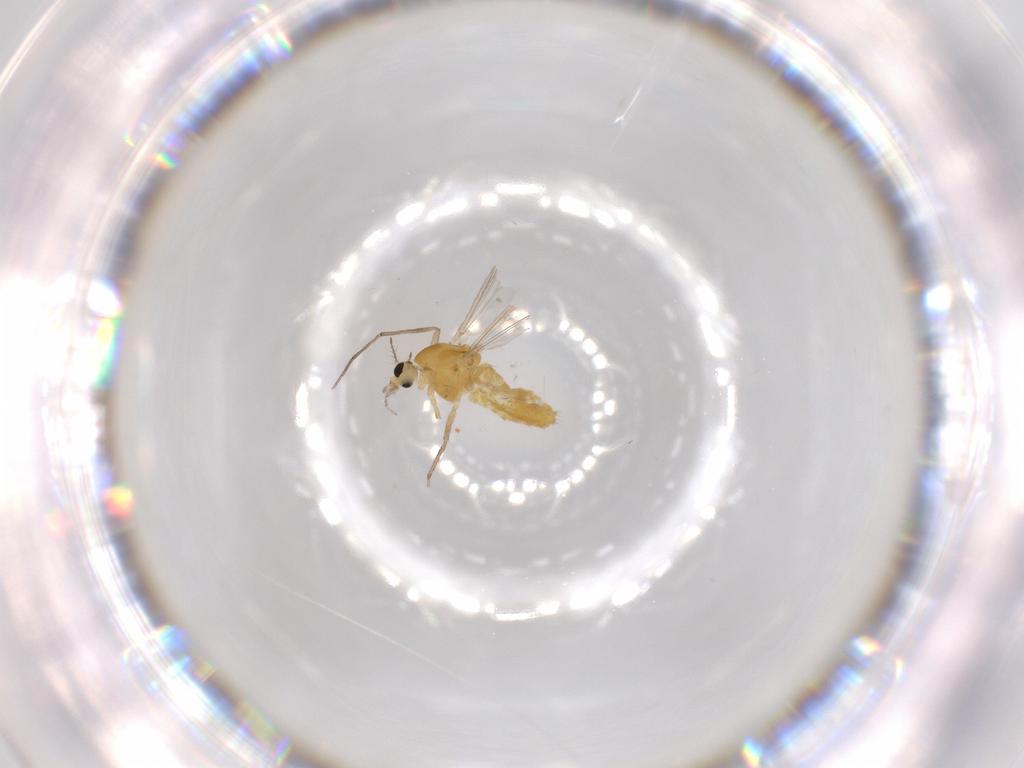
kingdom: Animalia
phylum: Arthropoda
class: Insecta
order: Diptera
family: Chironomidae
